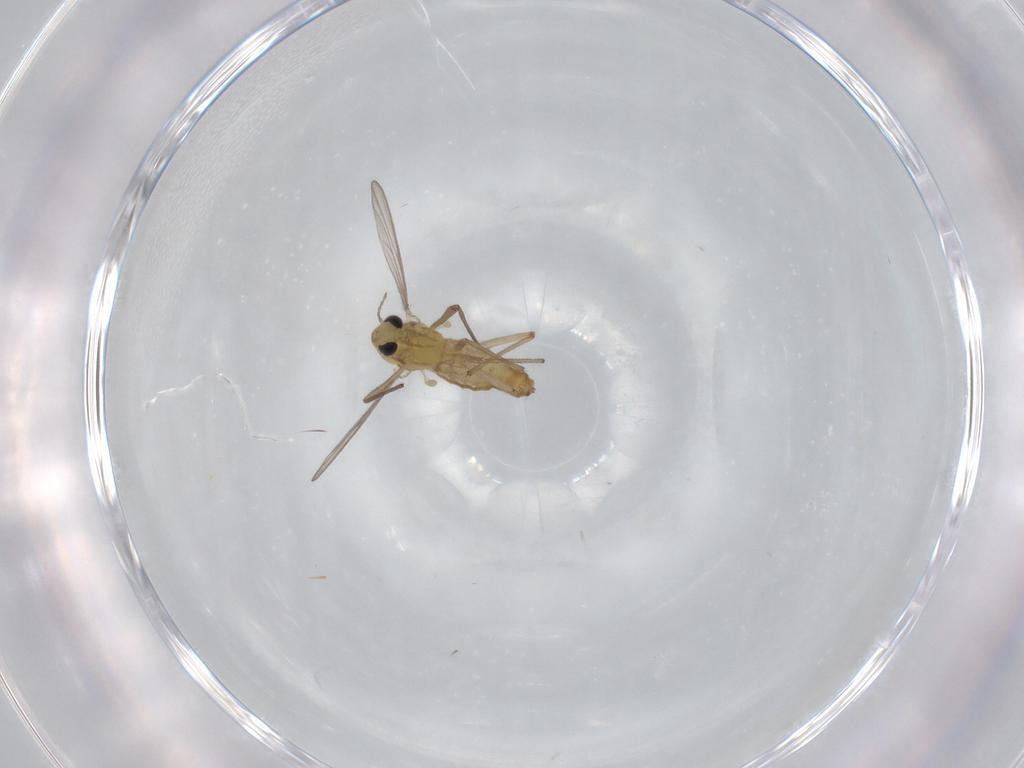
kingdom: Animalia
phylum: Arthropoda
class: Insecta
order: Diptera
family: Chironomidae
